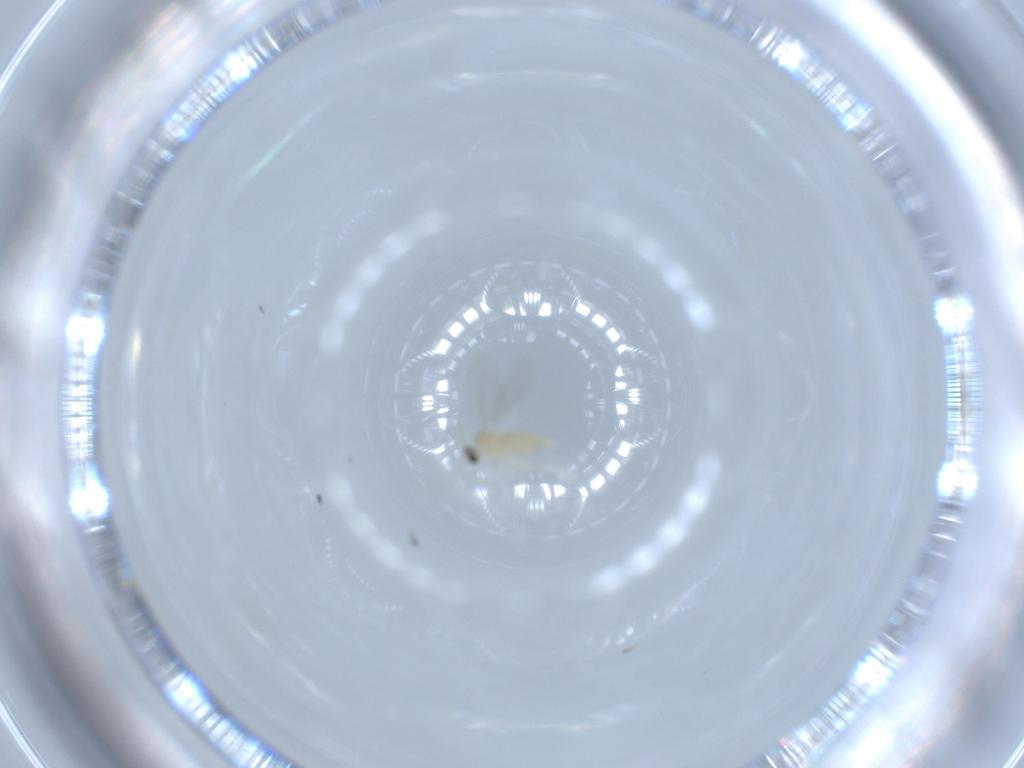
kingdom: Animalia
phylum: Arthropoda
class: Insecta
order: Diptera
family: Cecidomyiidae
